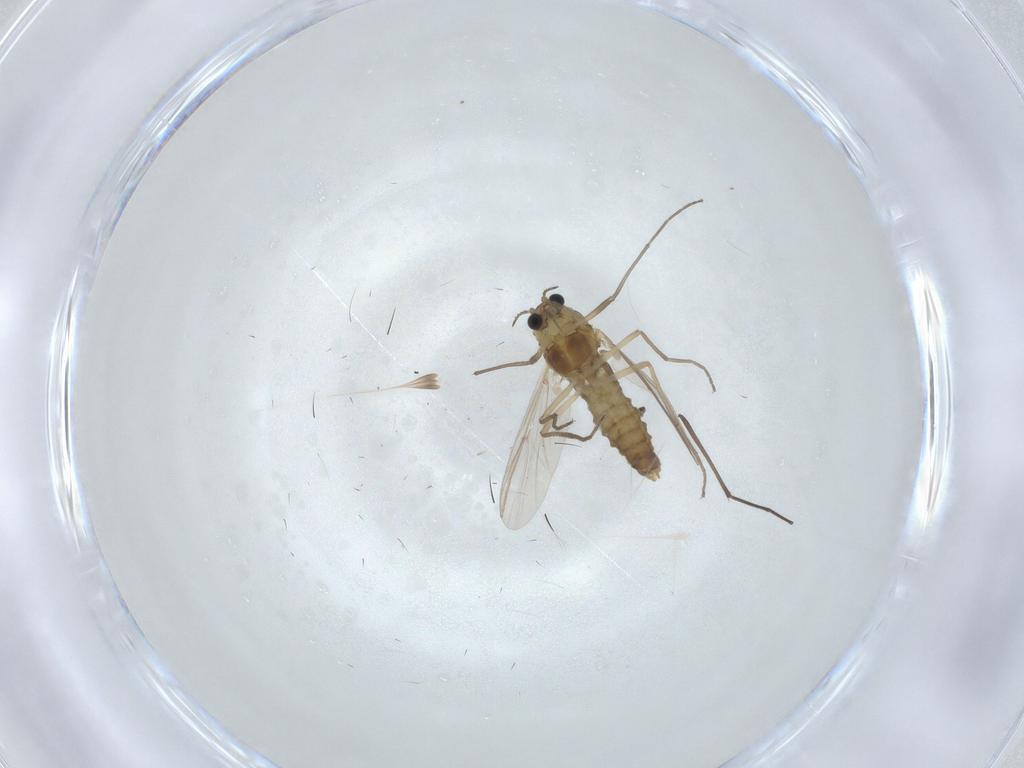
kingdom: Animalia
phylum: Arthropoda
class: Insecta
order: Diptera
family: Chironomidae
